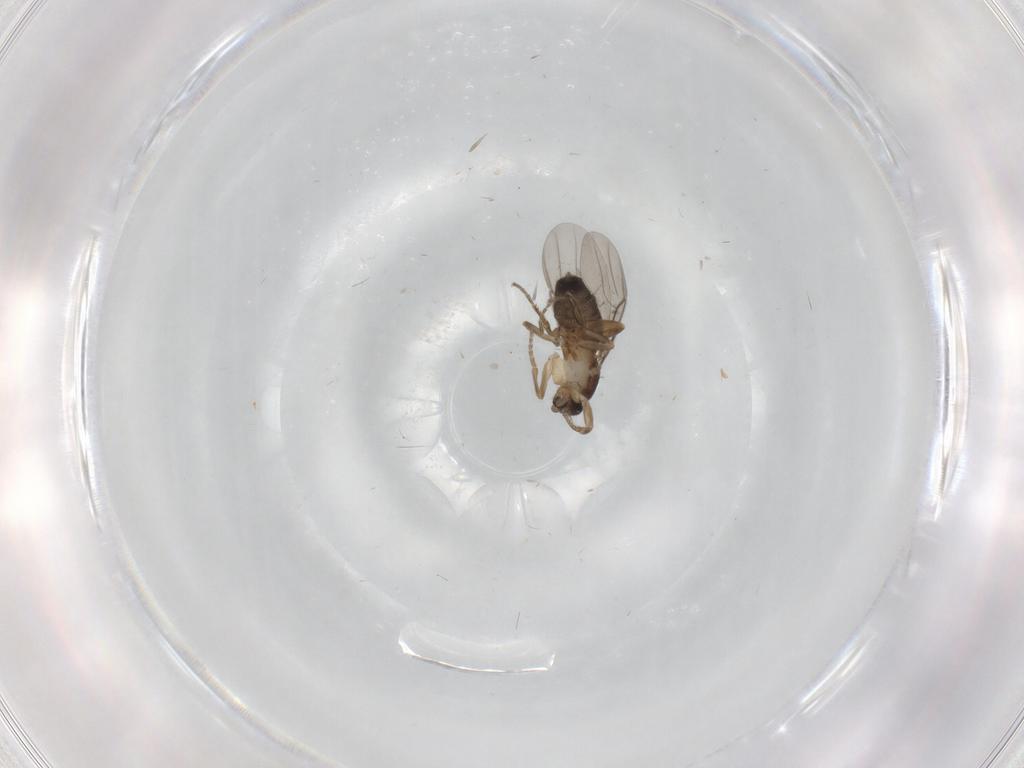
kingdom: Animalia
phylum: Arthropoda
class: Insecta
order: Diptera
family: Phoridae
